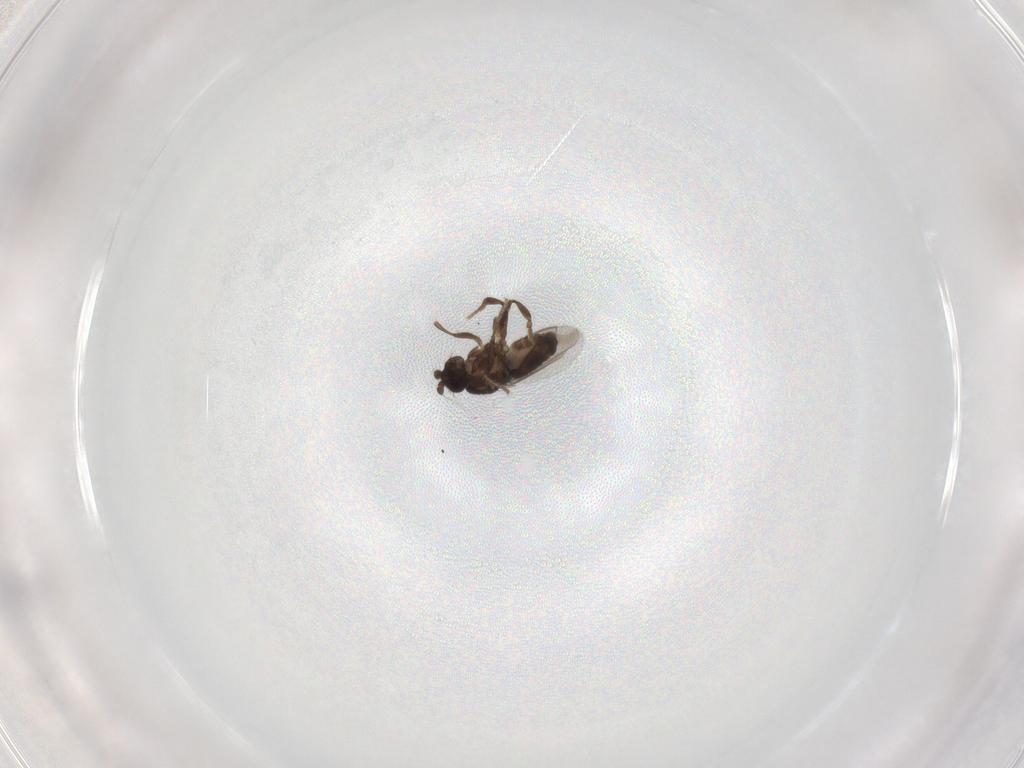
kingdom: Animalia
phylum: Arthropoda
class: Insecta
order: Diptera
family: Sphaeroceridae
